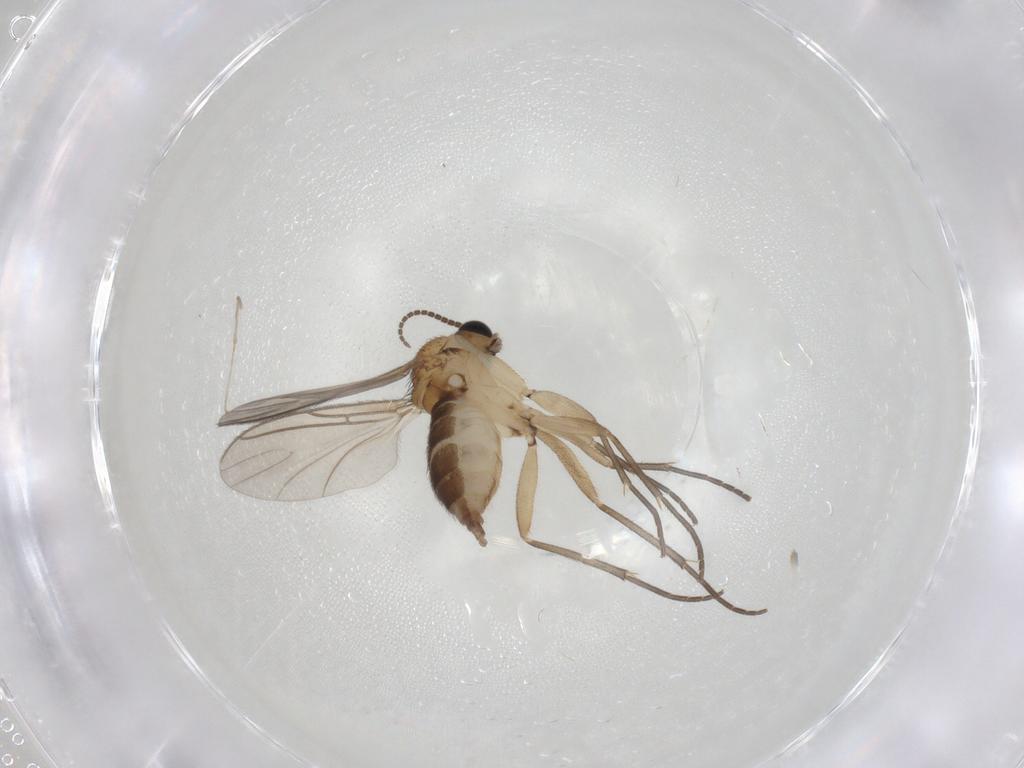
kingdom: Animalia
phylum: Arthropoda
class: Insecta
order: Diptera
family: Sciaridae
